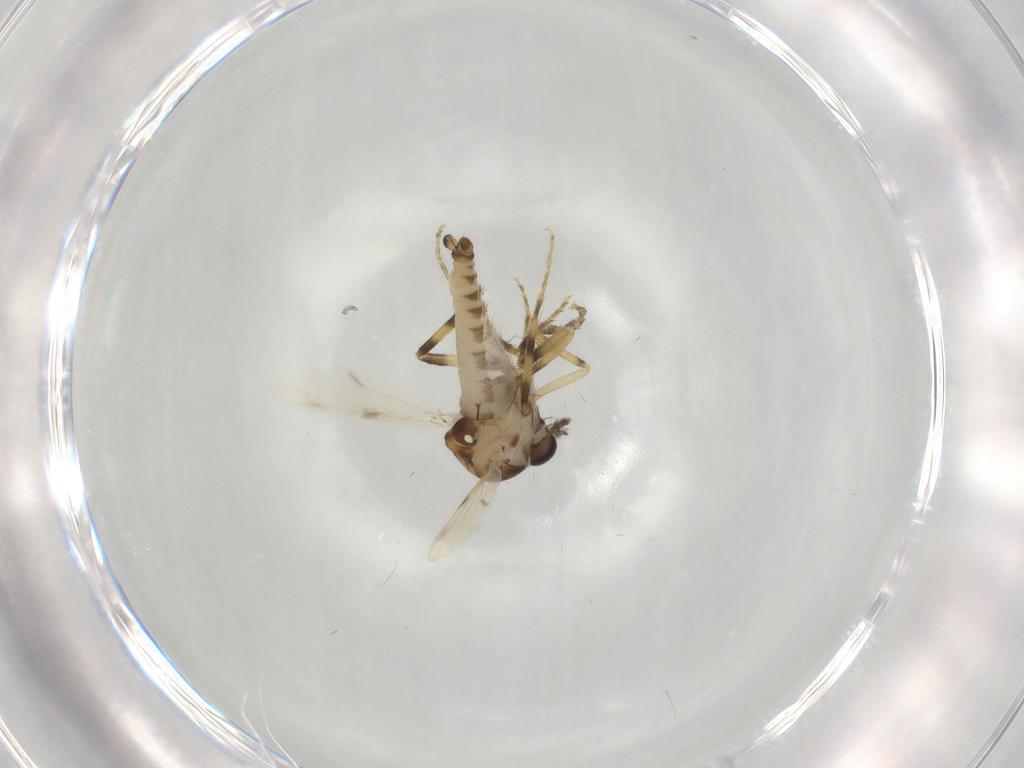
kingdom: Animalia
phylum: Arthropoda
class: Insecta
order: Diptera
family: Ceratopogonidae
